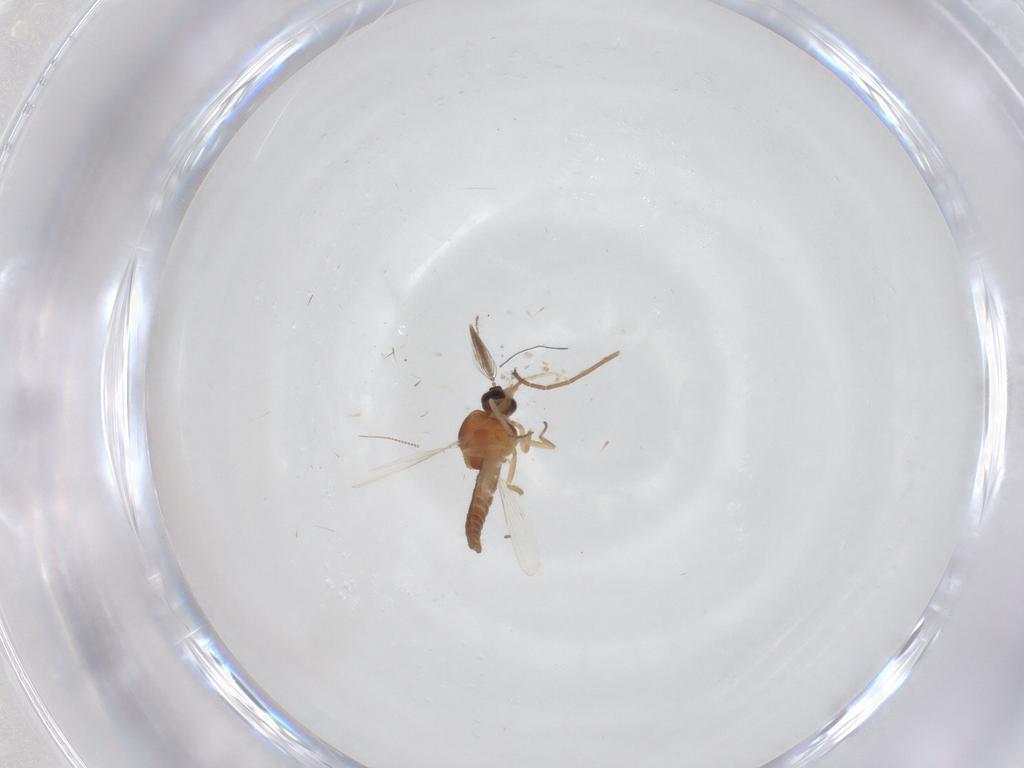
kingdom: Animalia
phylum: Arthropoda
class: Insecta
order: Diptera
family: Ceratopogonidae
